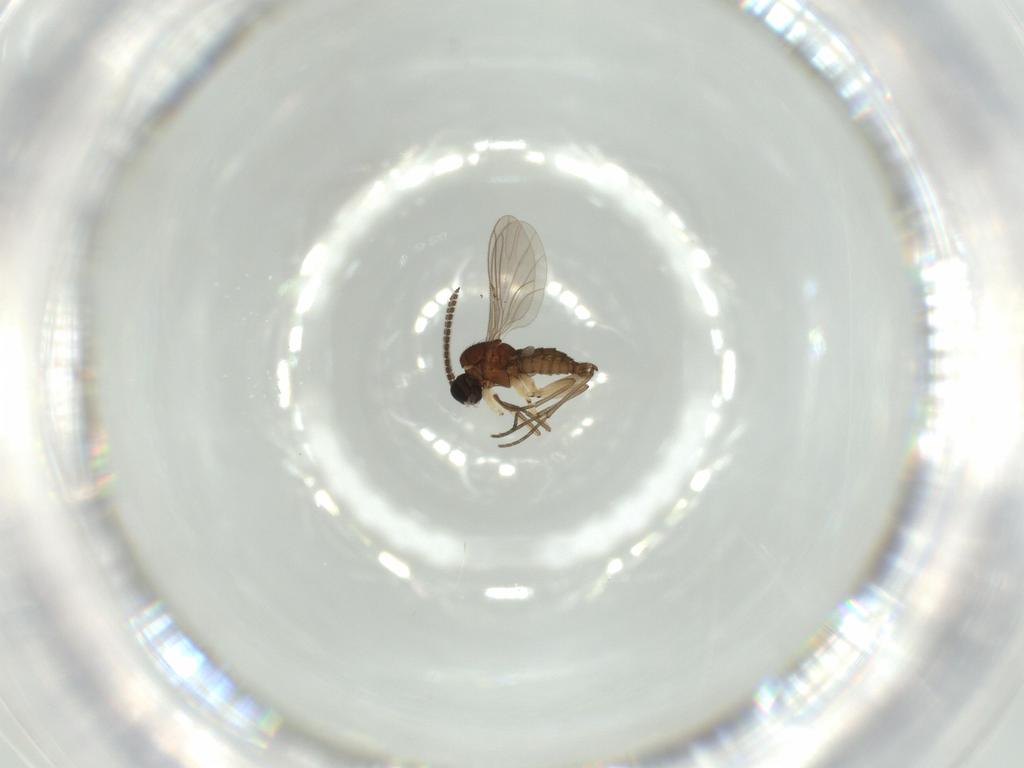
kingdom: Animalia
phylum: Arthropoda
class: Insecta
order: Diptera
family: Sciaridae
